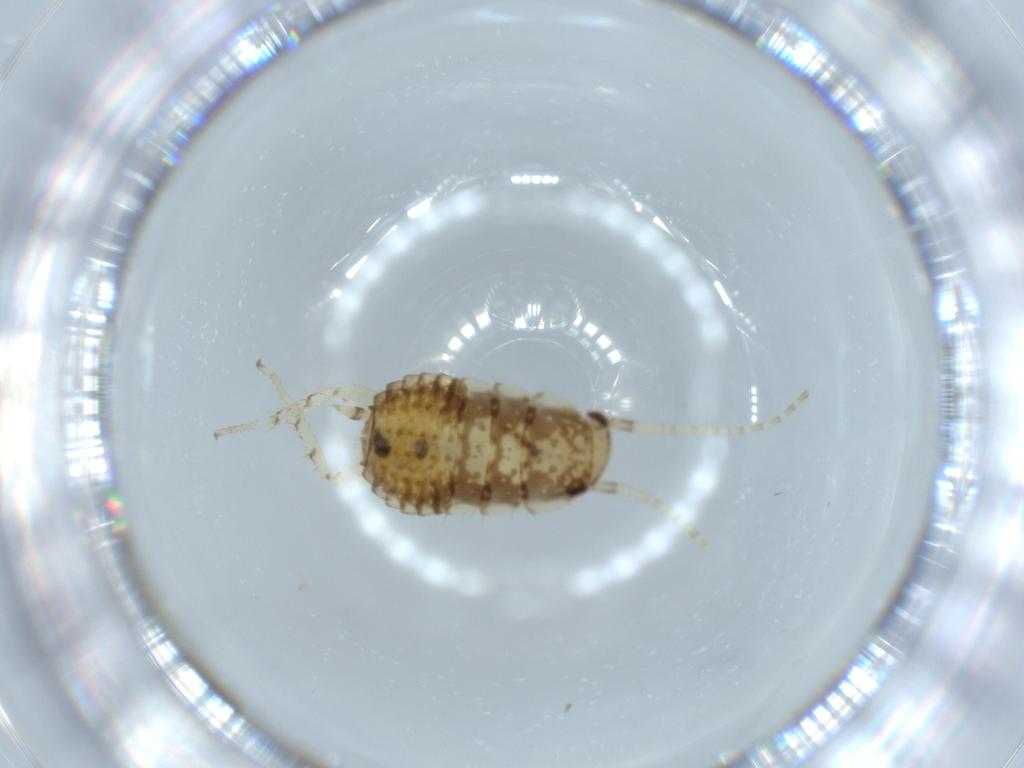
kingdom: Animalia
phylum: Arthropoda
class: Insecta
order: Blattodea
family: Ectobiidae
